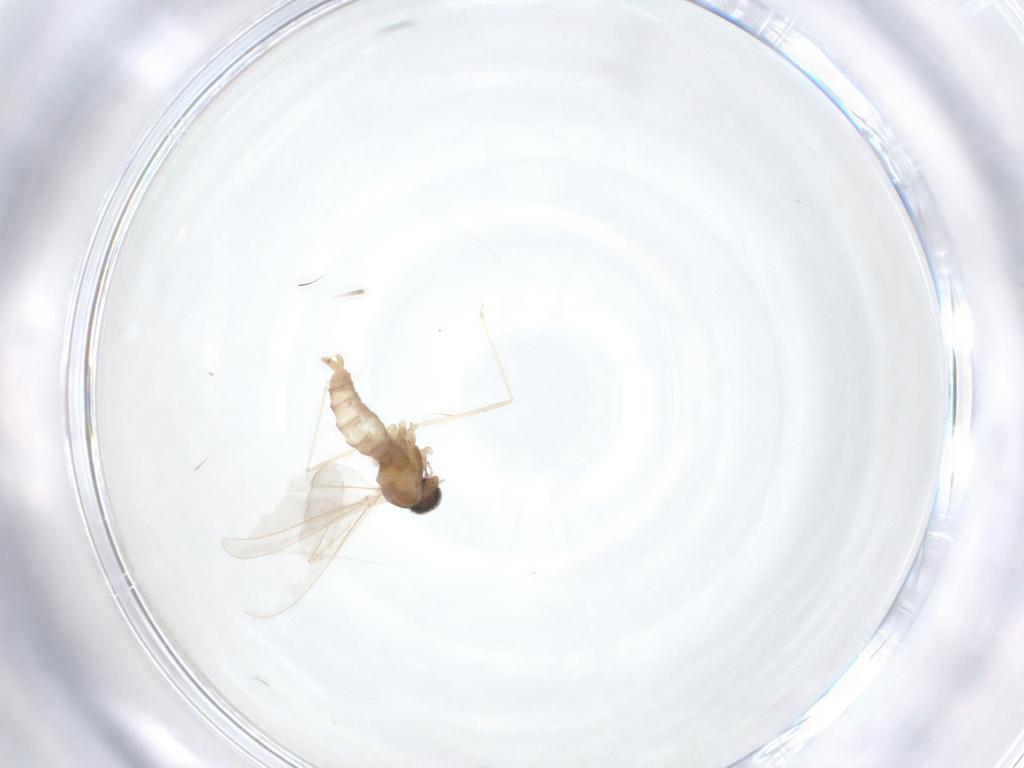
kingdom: Animalia
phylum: Arthropoda
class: Insecta
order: Diptera
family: Cecidomyiidae
